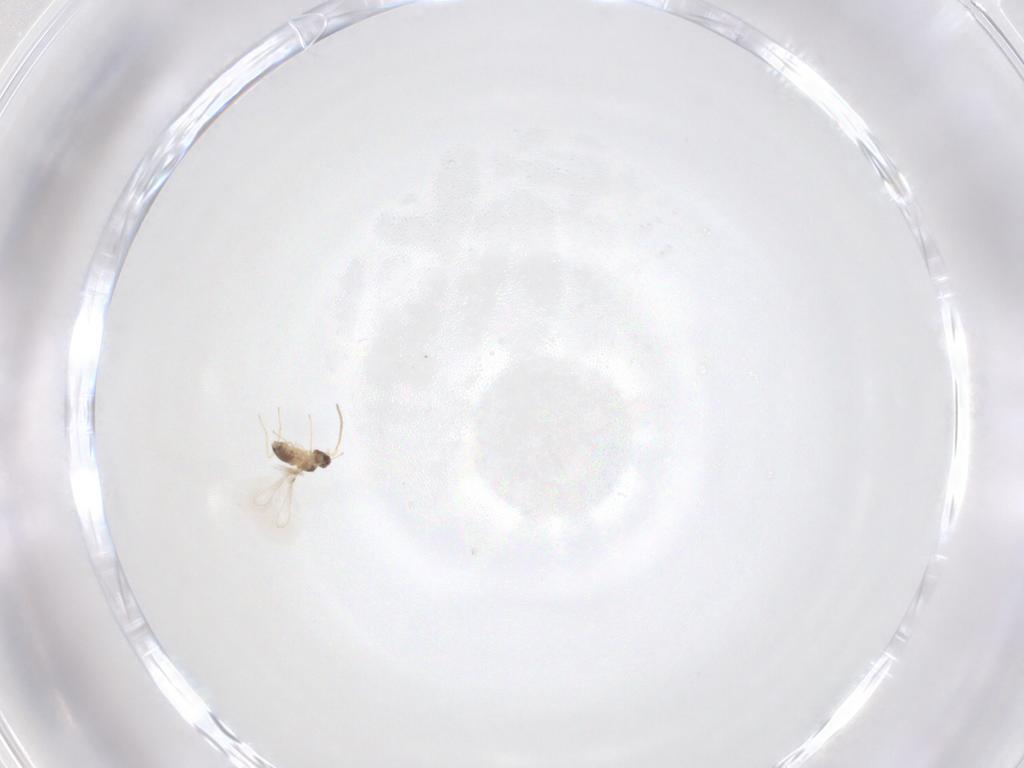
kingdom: Animalia
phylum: Arthropoda
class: Insecta
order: Hymenoptera
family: Mymaridae
